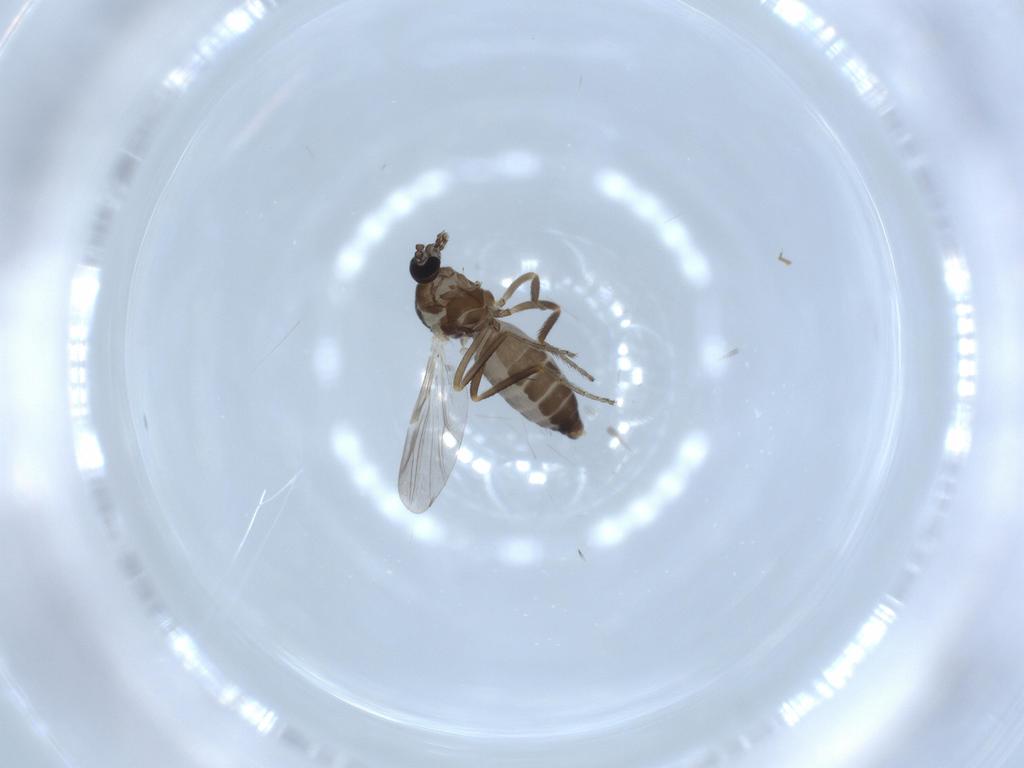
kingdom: Animalia
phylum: Arthropoda
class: Insecta
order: Diptera
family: Ceratopogonidae
